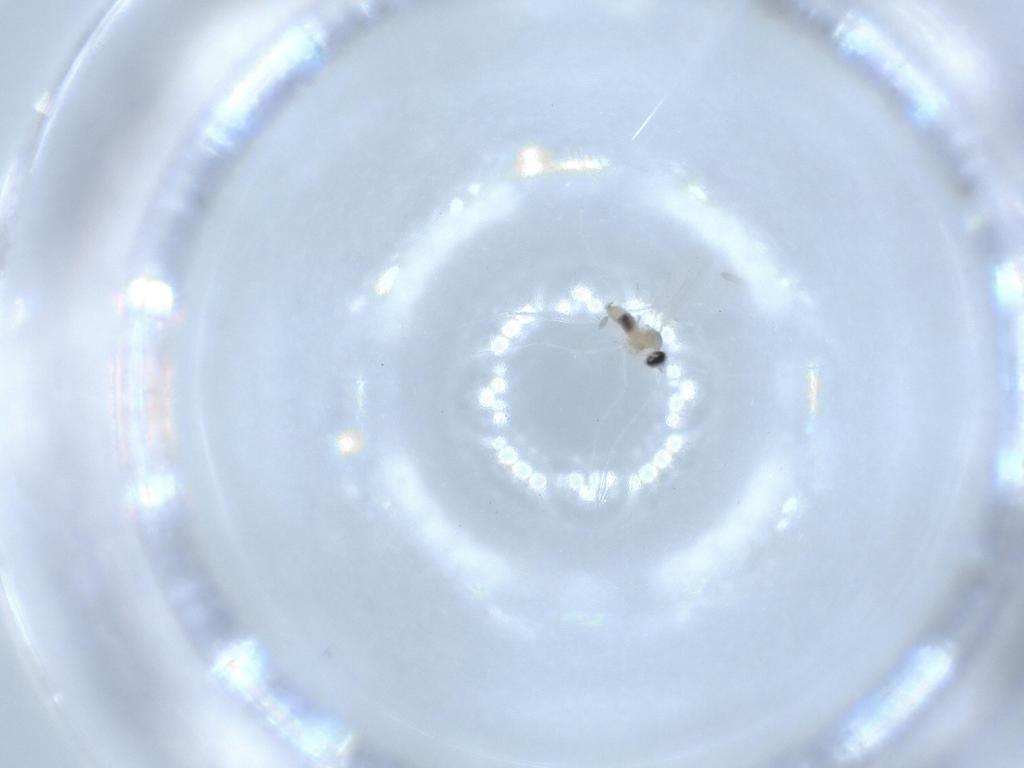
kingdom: Animalia
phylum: Arthropoda
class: Insecta
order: Diptera
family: Cecidomyiidae
